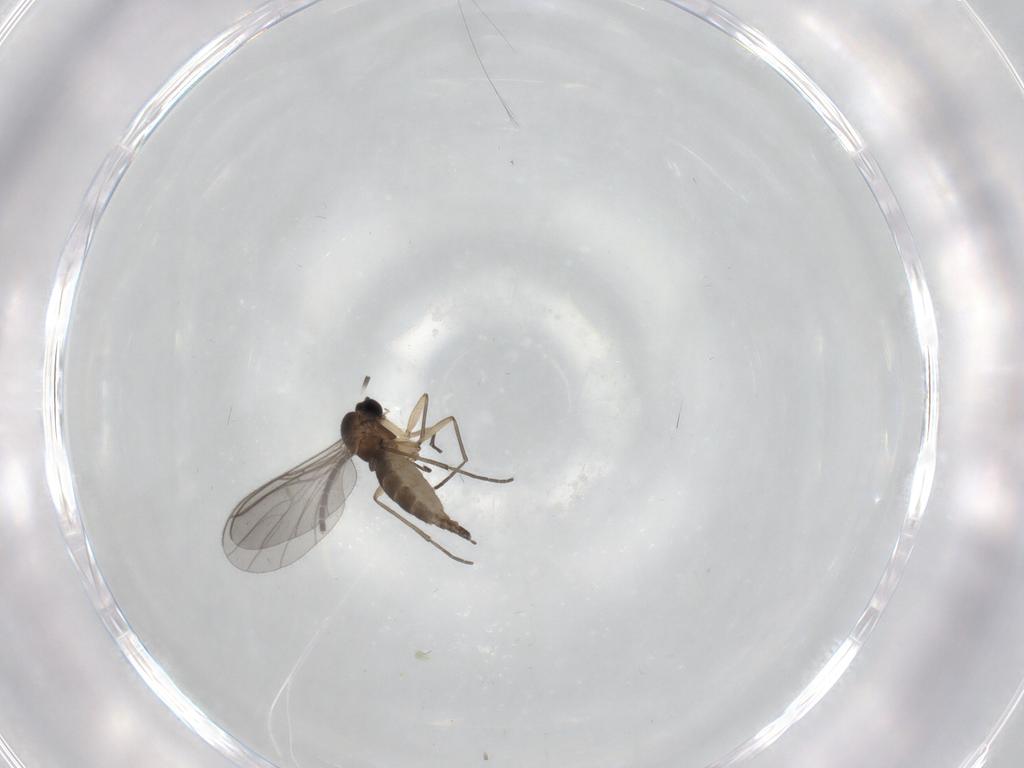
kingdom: Animalia
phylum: Arthropoda
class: Insecta
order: Diptera
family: Sciaridae
